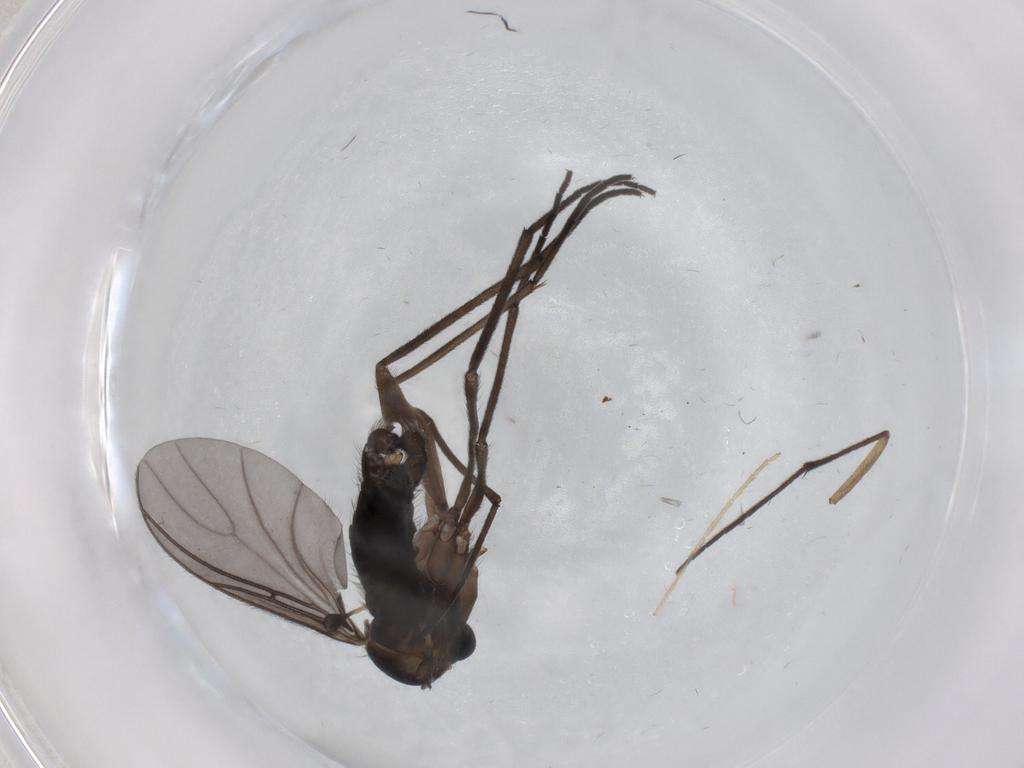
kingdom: Animalia
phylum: Arthropoda
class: Insecta
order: Diptera
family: Sciaridae
